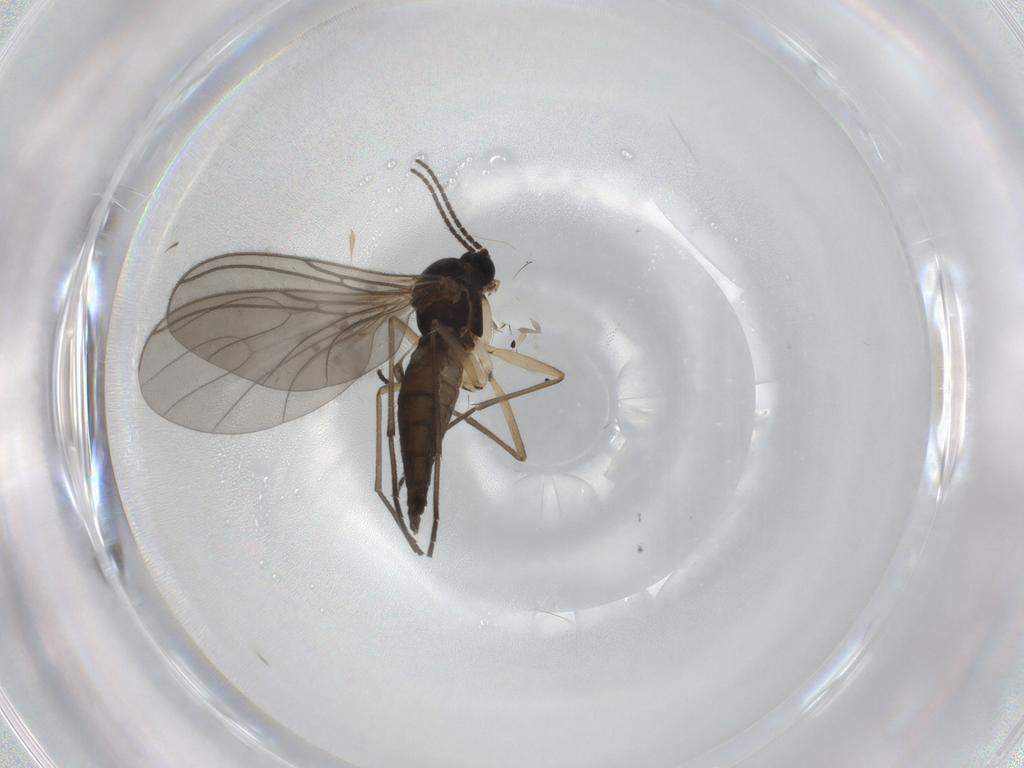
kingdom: Animalia
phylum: Arthropoda
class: Insecta
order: Diptera
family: Sciaridae
